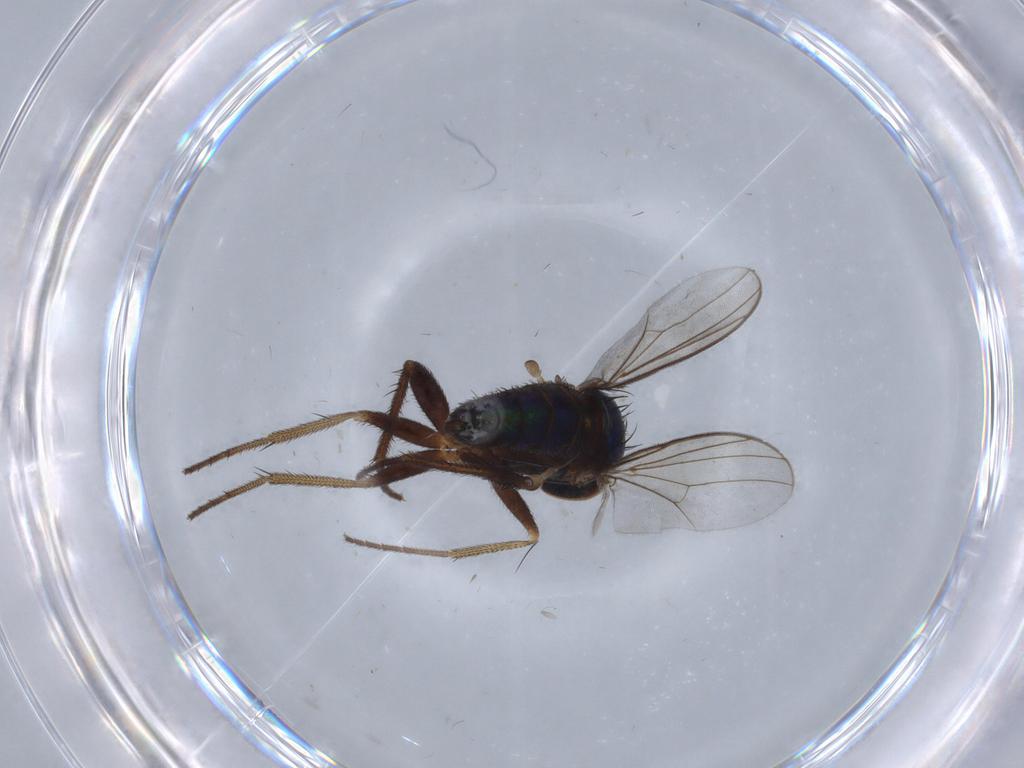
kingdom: Animalia
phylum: Arthropoda
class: Insecta
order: Diptera
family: Dolichopodidae
